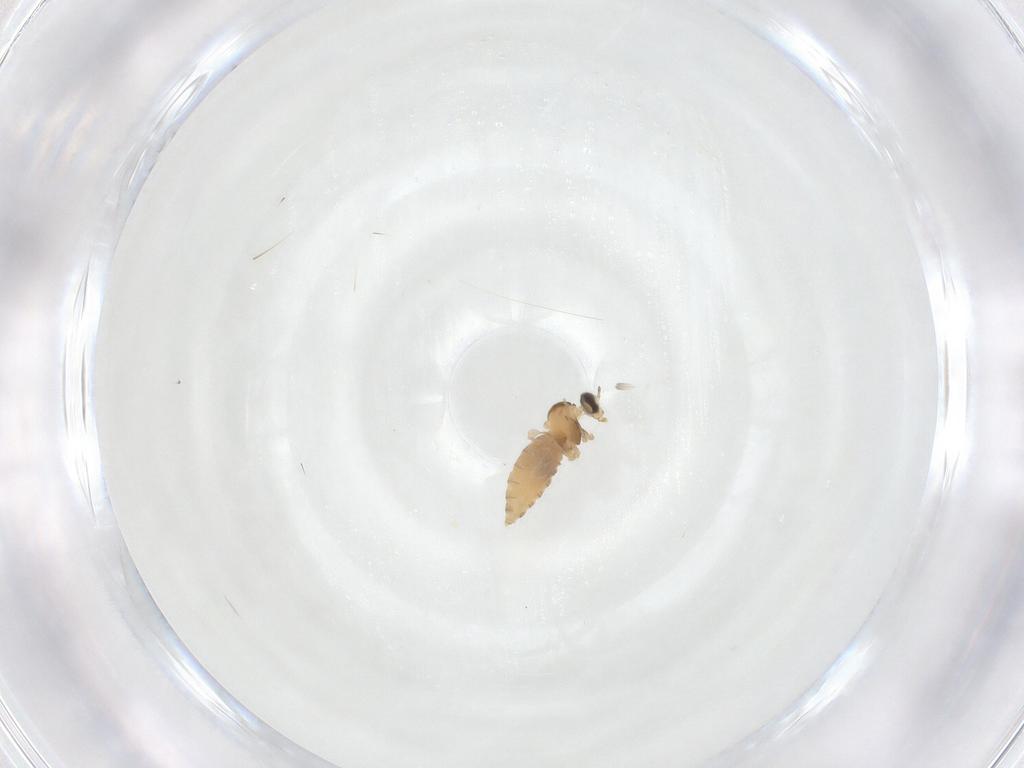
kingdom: Animalia
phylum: Arthropoda
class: Insecta
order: Diptera
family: Cecidomyiidae
